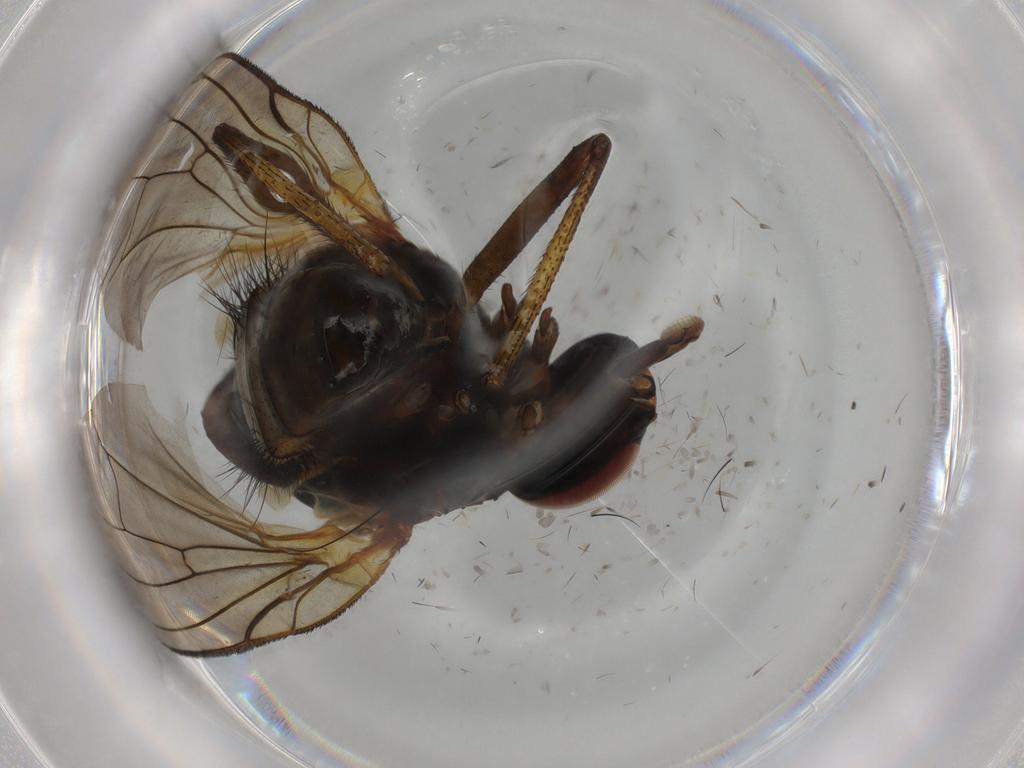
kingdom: Animalia
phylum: Arthropoda
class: Insecta
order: Diptera
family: Anthomyiidae
